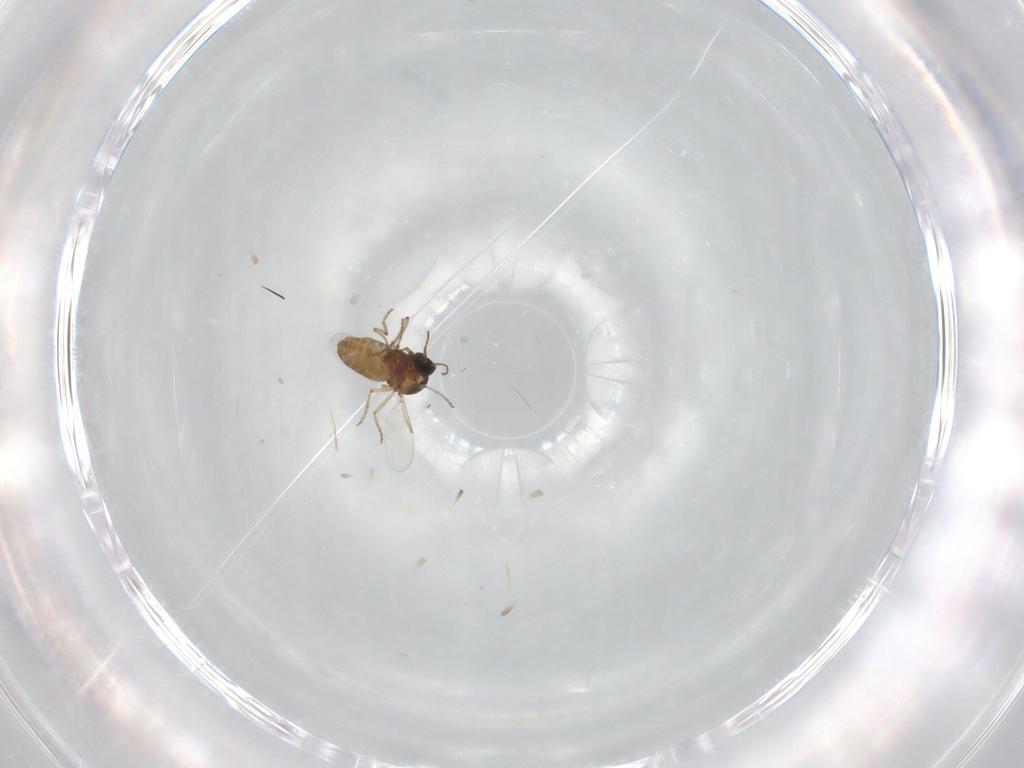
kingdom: Animalia
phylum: Arthropoda
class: Insecta
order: Diptera
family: Ceratopogonidae
